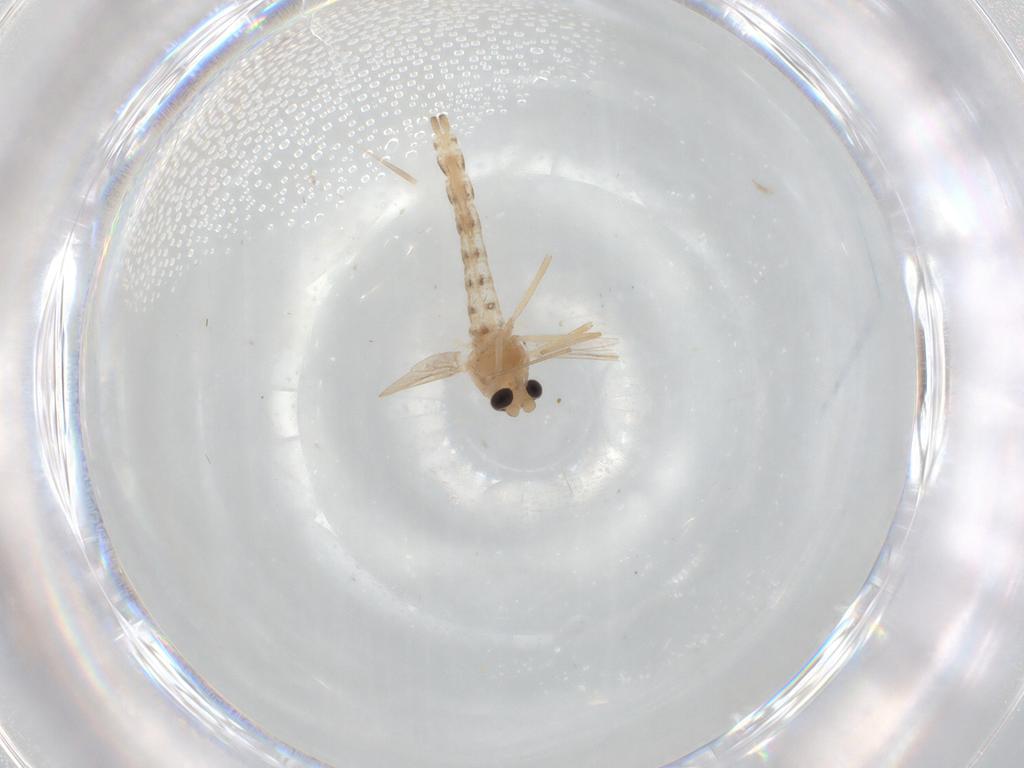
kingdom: Animalia
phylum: Arthropoda
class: Insecta
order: Diptera
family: Chironomidae
